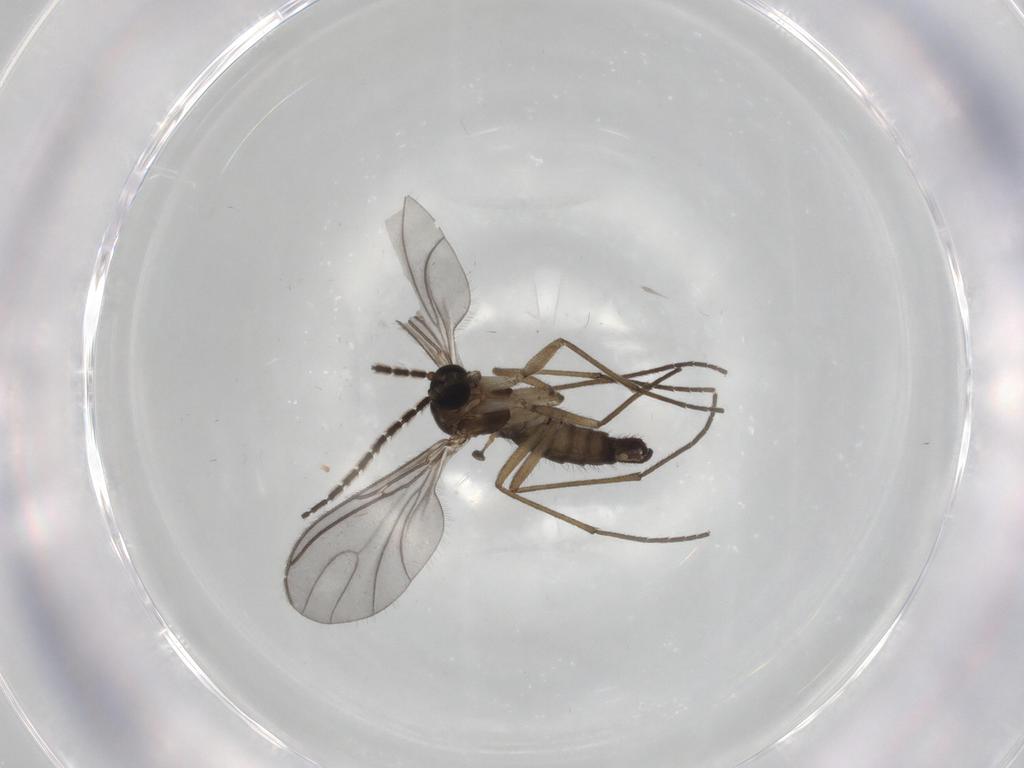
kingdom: Animalia
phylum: Arthropoda
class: Insecta
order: Diptera
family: Sciaridae
